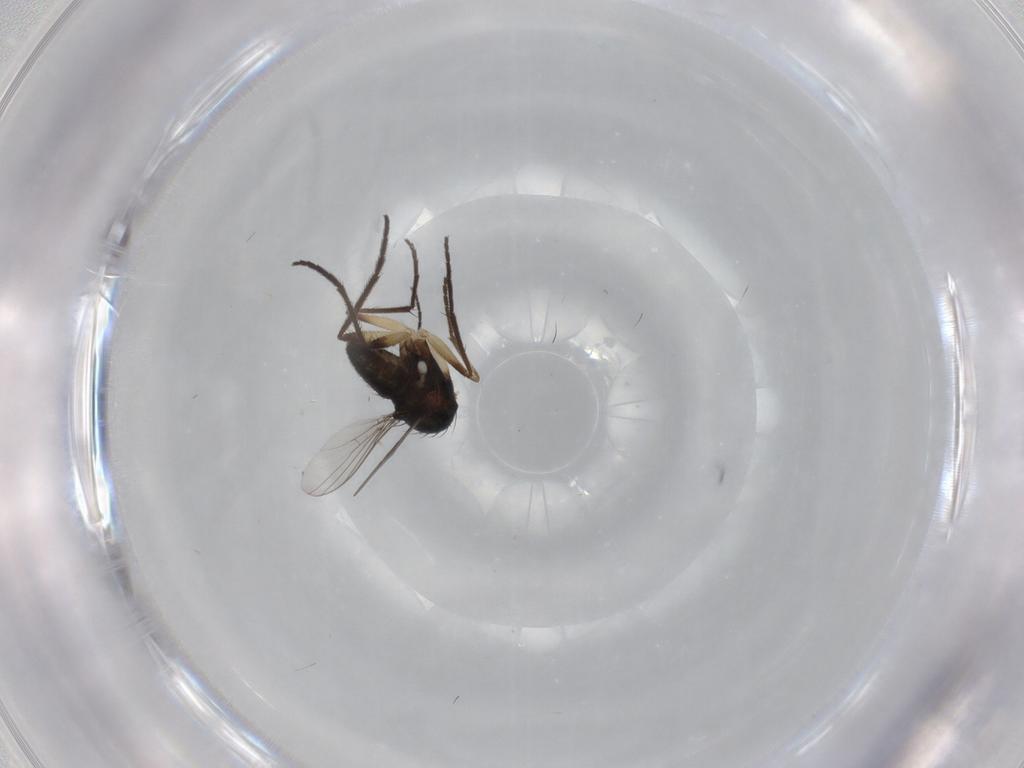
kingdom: Animalia
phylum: Arthropoda
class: Insecta
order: Diptera
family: Dolichopodidae
